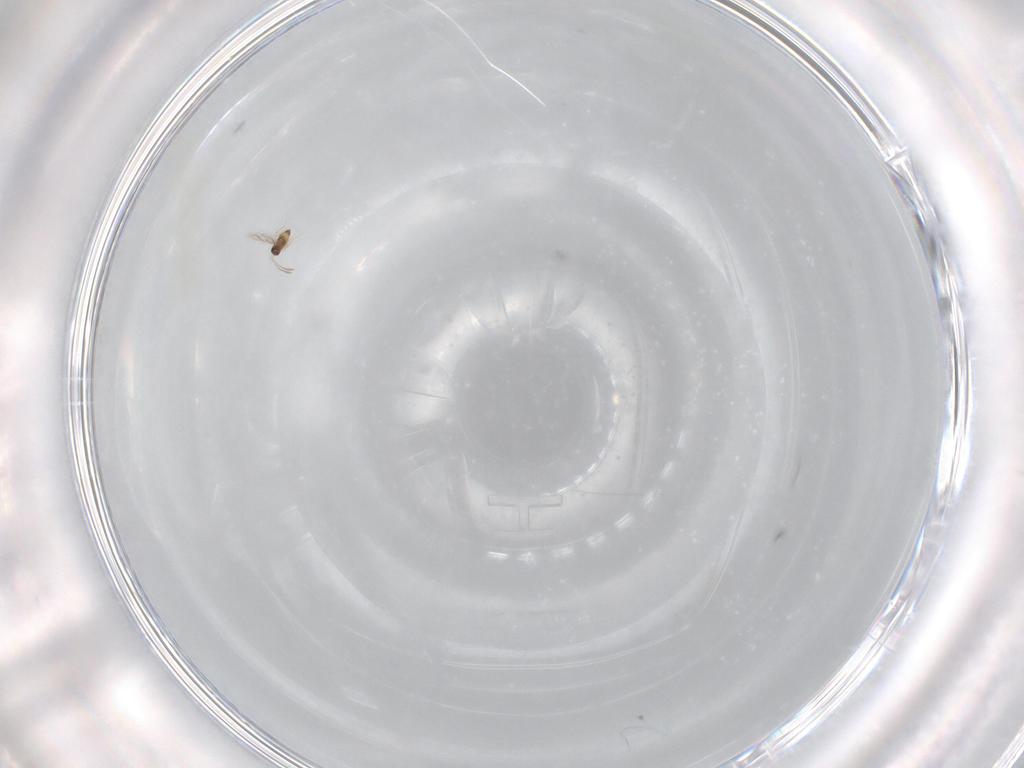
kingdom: Animalia
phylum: Arthropoda
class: Insecta
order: Hymenoptera
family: Encyrtidae
